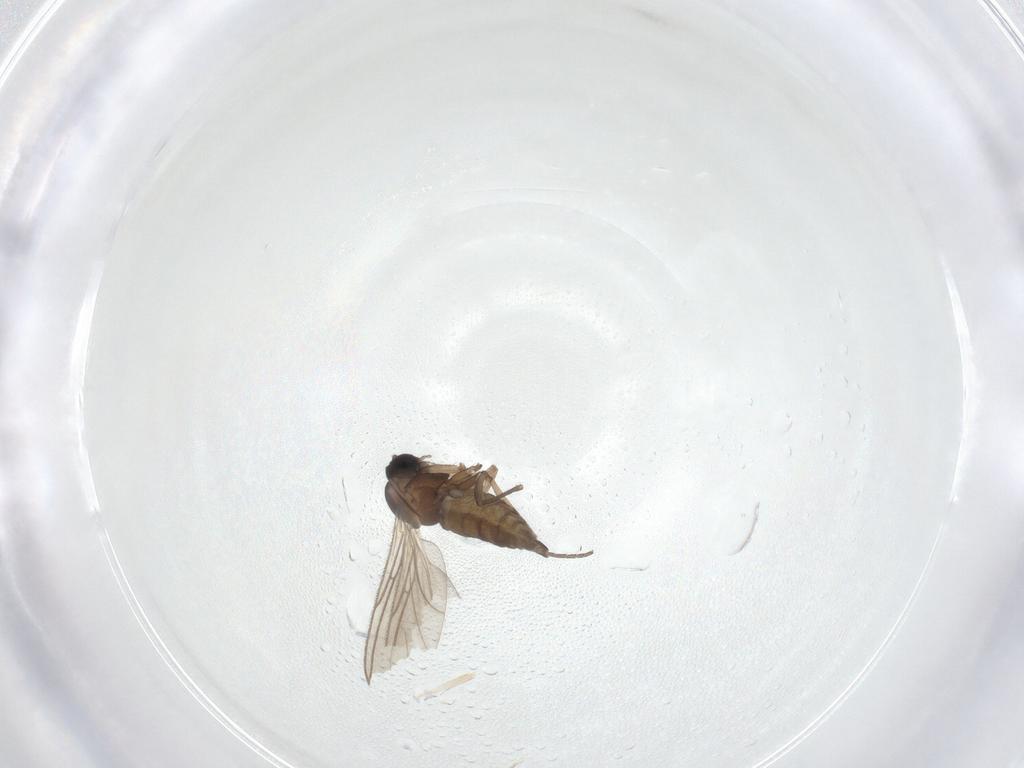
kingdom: Animalia
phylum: Arthropoda
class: Insecta
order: Diptera
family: Sciaridae
